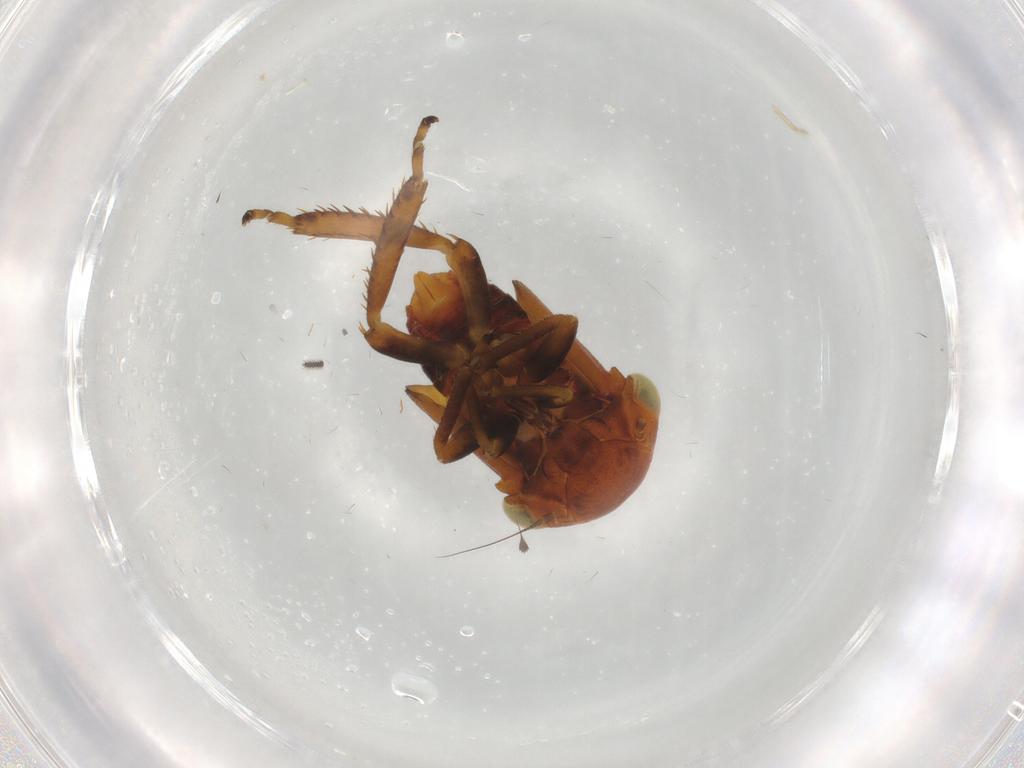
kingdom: Animalia
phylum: Arthropoda
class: Insecta
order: Hemiptera
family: Cicadellidae
